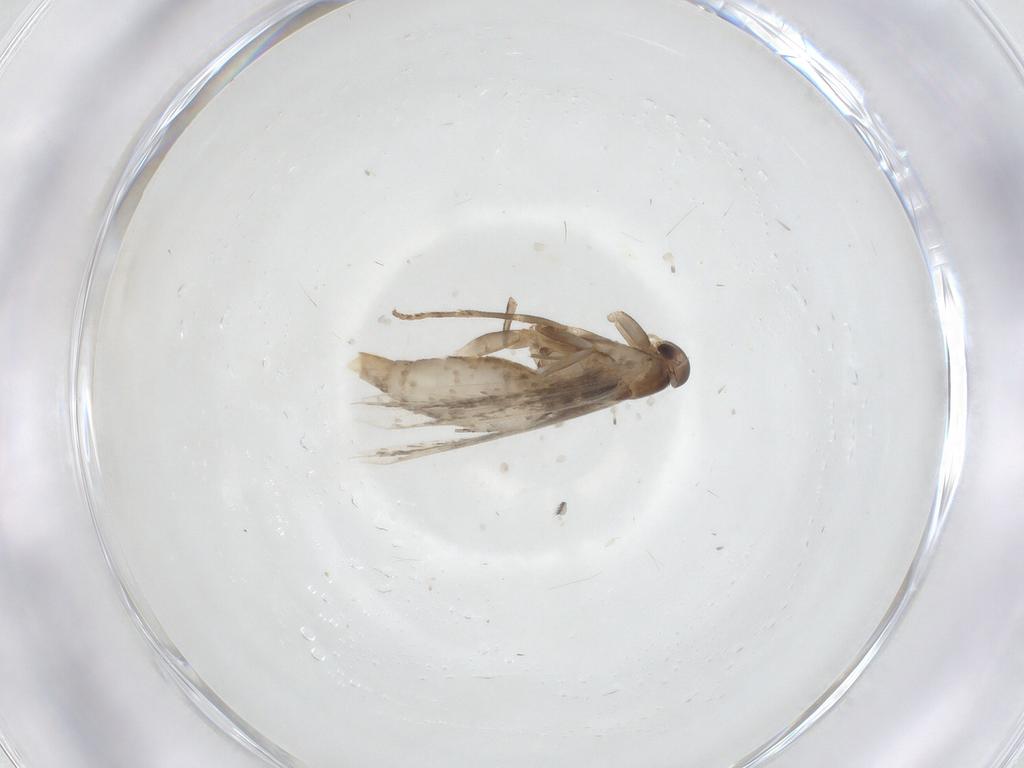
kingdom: Animalia
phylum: Arthropoda
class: Insecta
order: Lepidoptera
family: Elachistidae
